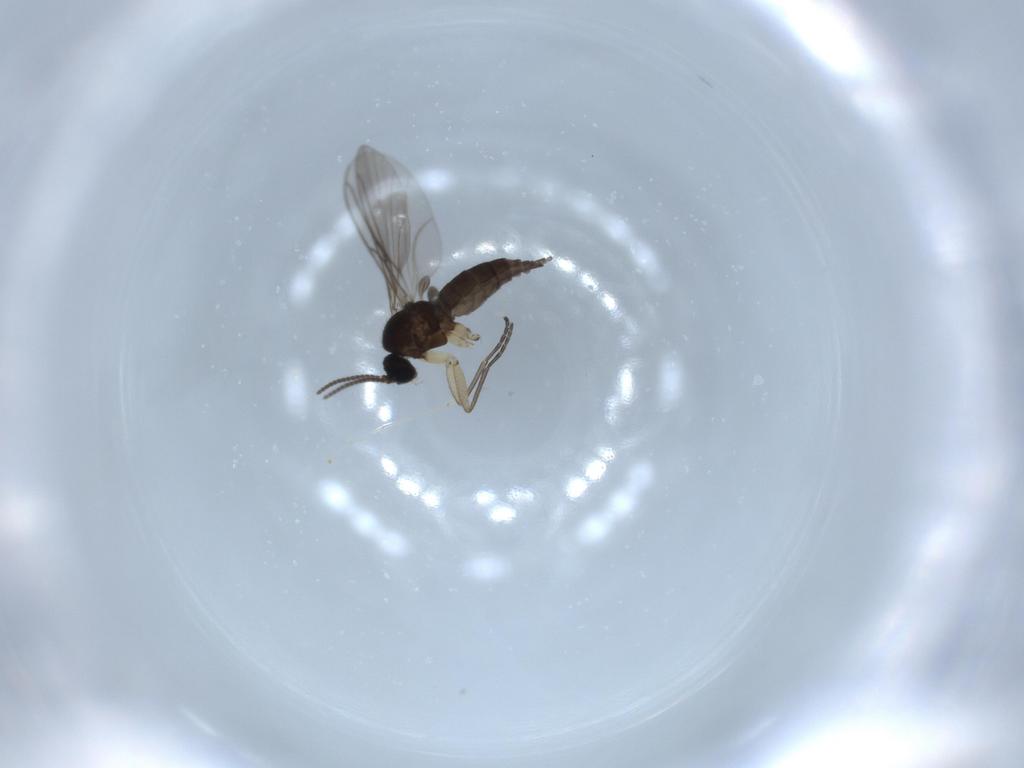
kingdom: Animalia
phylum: Arthropoda
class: Insecta
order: Diptera
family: Sciaridae
